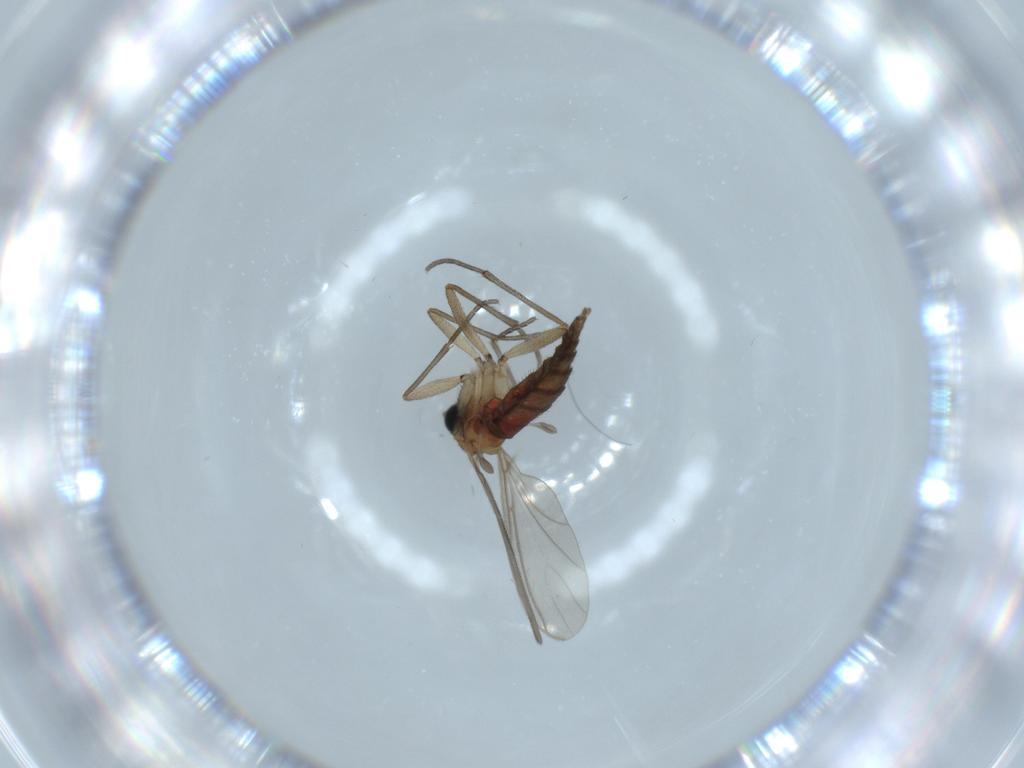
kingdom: Animalia
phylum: Arthropoda
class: Insecta
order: Diptera
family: Sciaridae
